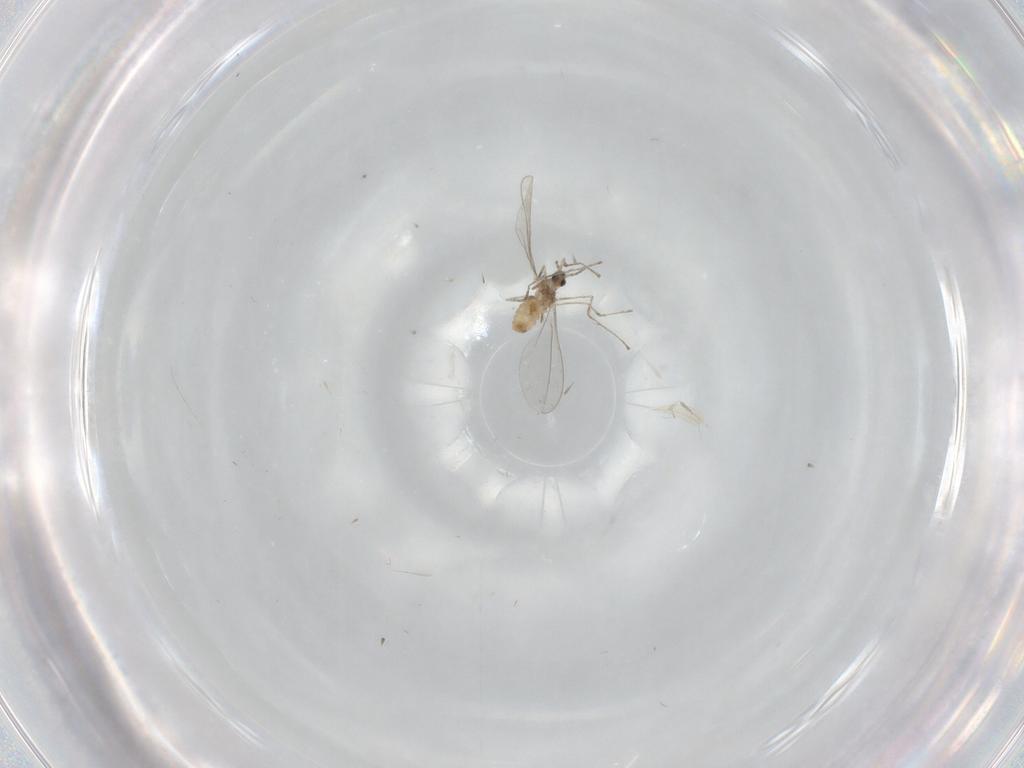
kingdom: Animalia
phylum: Arthropoda
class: Insecta
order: Diptera
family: Cecidomyiidae
